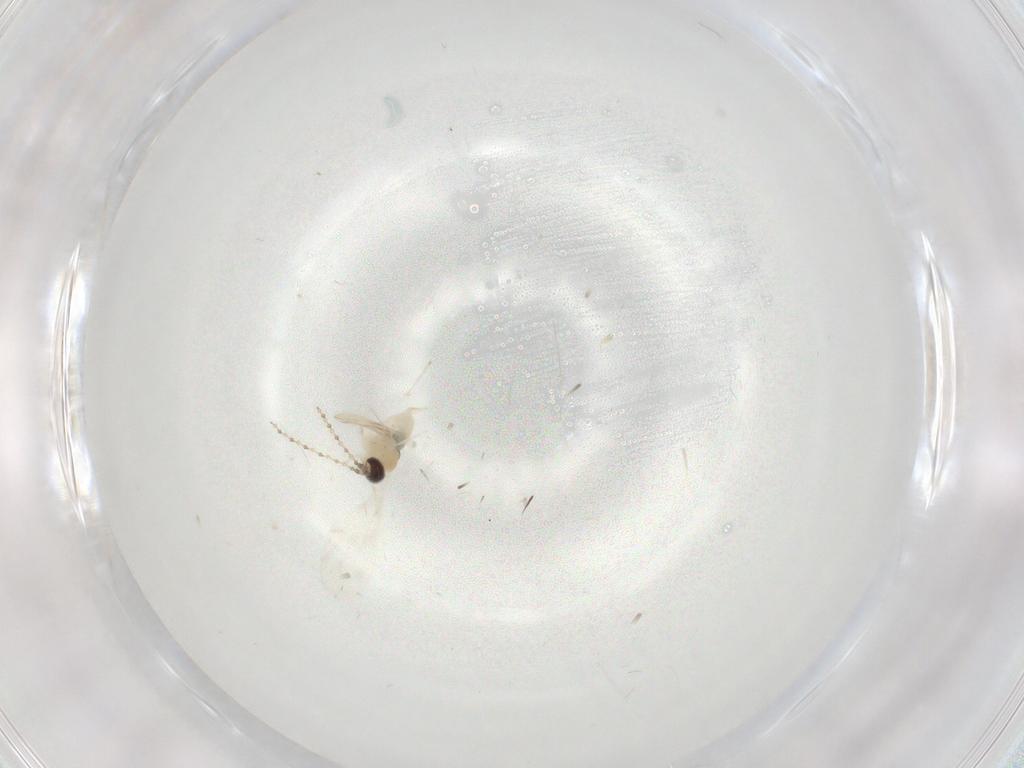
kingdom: Animalia
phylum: Arthropoda
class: Insecta
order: Diptera
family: Cecidomyiidae
